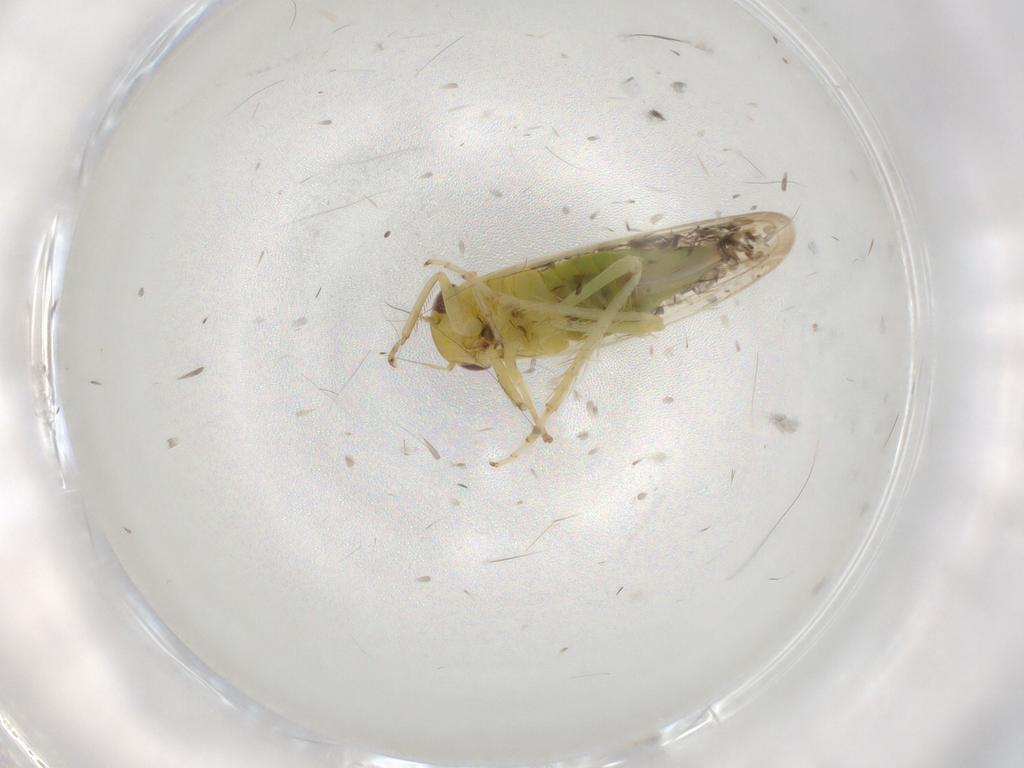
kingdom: Animalia
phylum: Arthropoda
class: Insecta
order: Hemiptera
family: Cicadellidae
